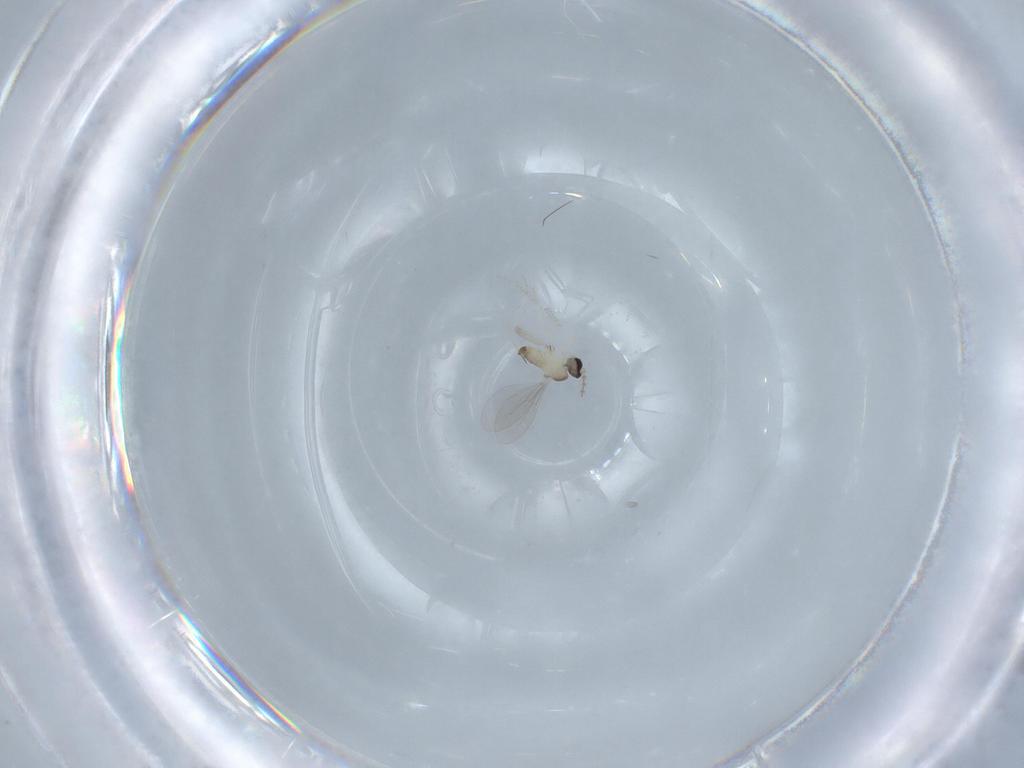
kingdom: Animalia
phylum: Arthropoda
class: Insecta
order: Diptera
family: Cecidomyiidae
